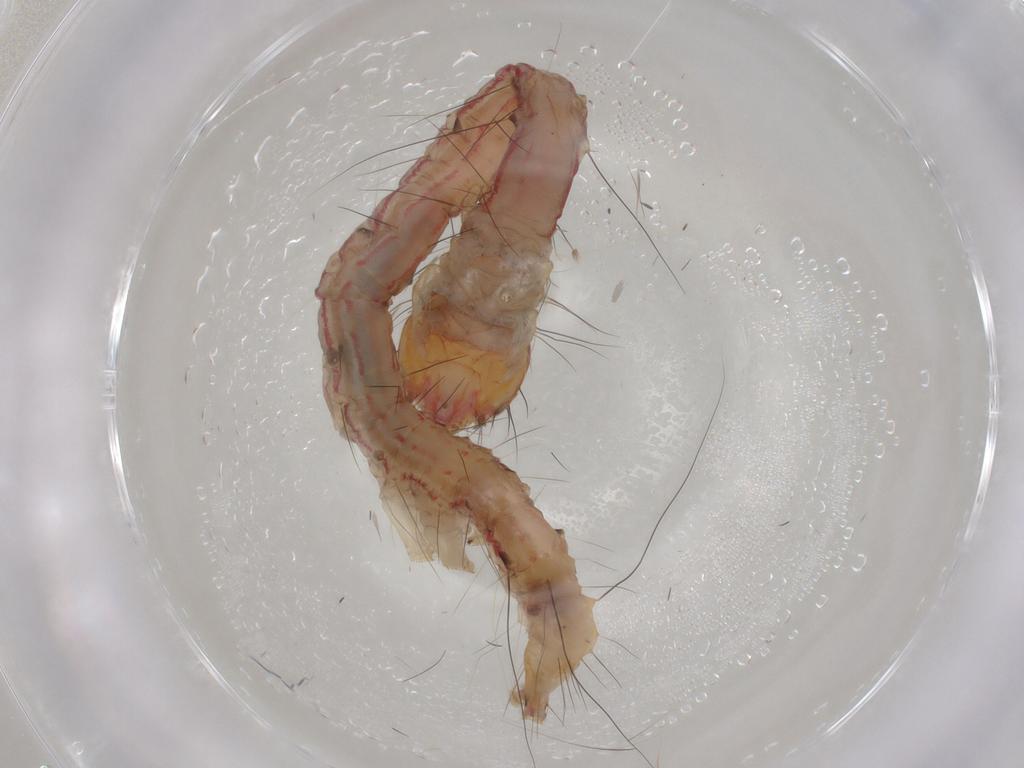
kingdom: Animalia
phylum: Arthropoda
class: Insecta
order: Lepidoptera
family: Erebidae
